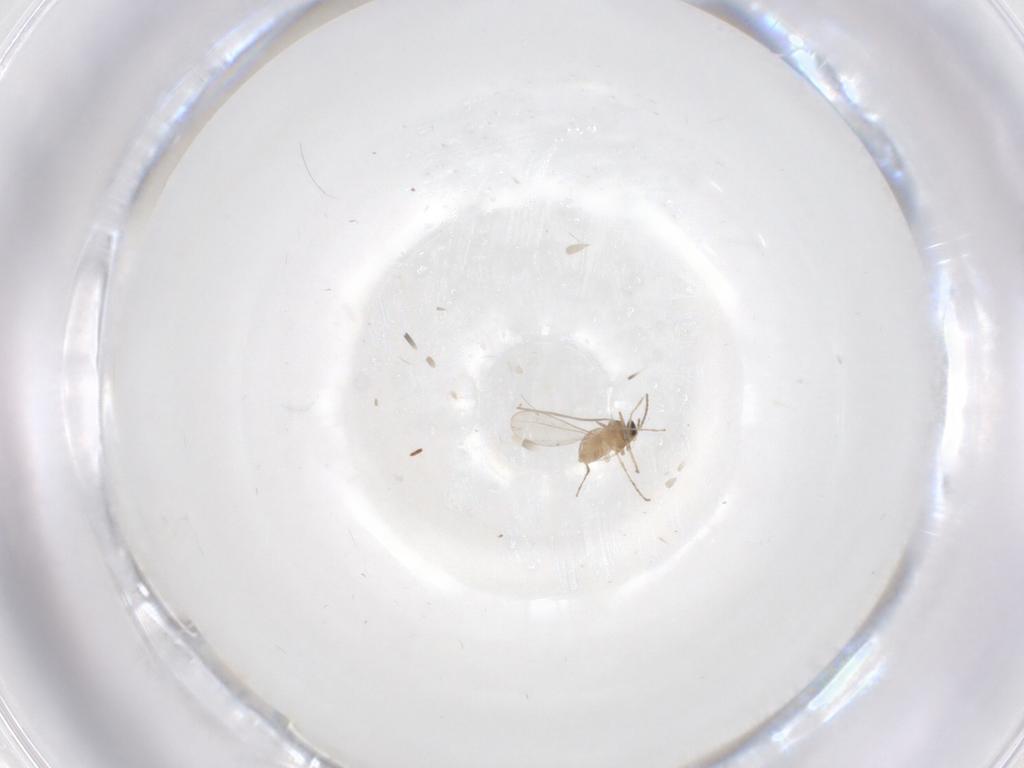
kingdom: Animalia
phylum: Arthropoda
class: Insecta
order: Diptera
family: Cecidomyiidae
